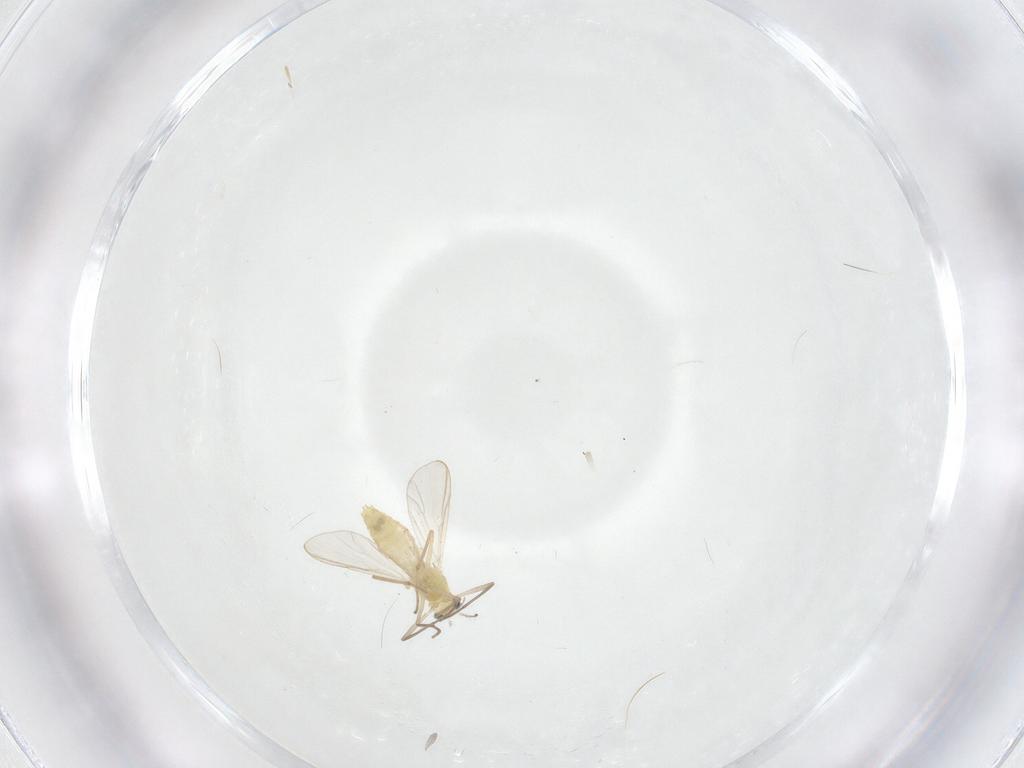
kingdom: Animalia
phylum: Arthropoda
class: Insecta
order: Diptera
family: Chironomidae
